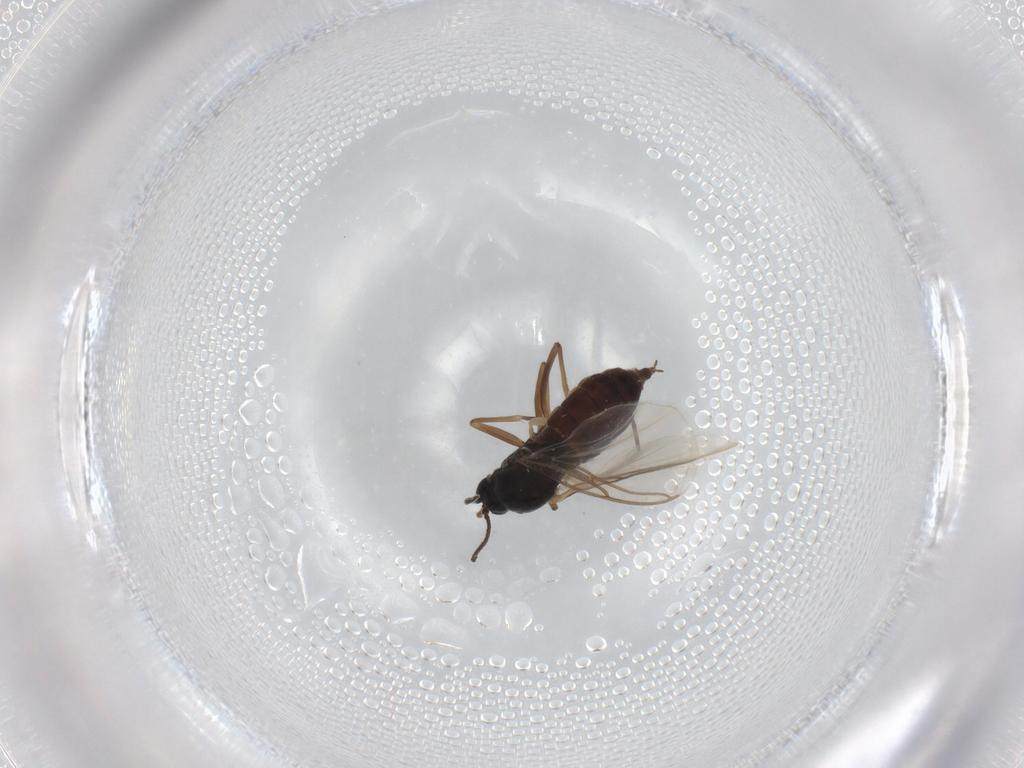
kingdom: Animalia
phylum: Arthropoda
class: Insecta
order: Diptera
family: Sciaridae
